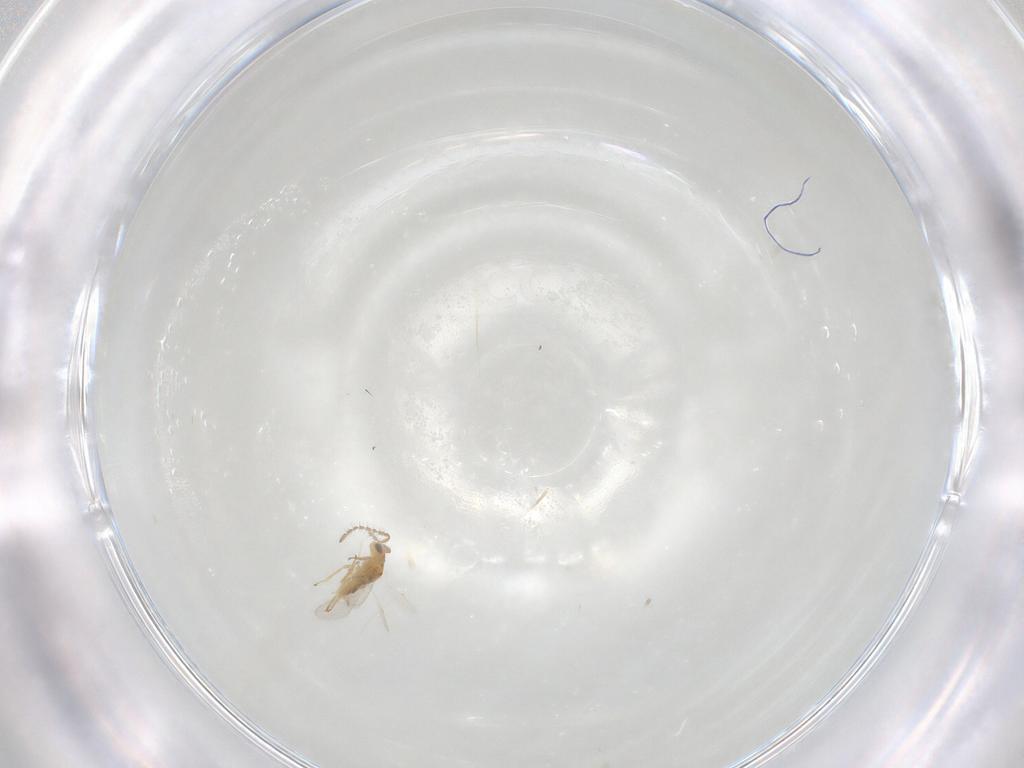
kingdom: Animalia
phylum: Arthropoda
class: Insecta
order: Hymenoptera
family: Encyrtidae
